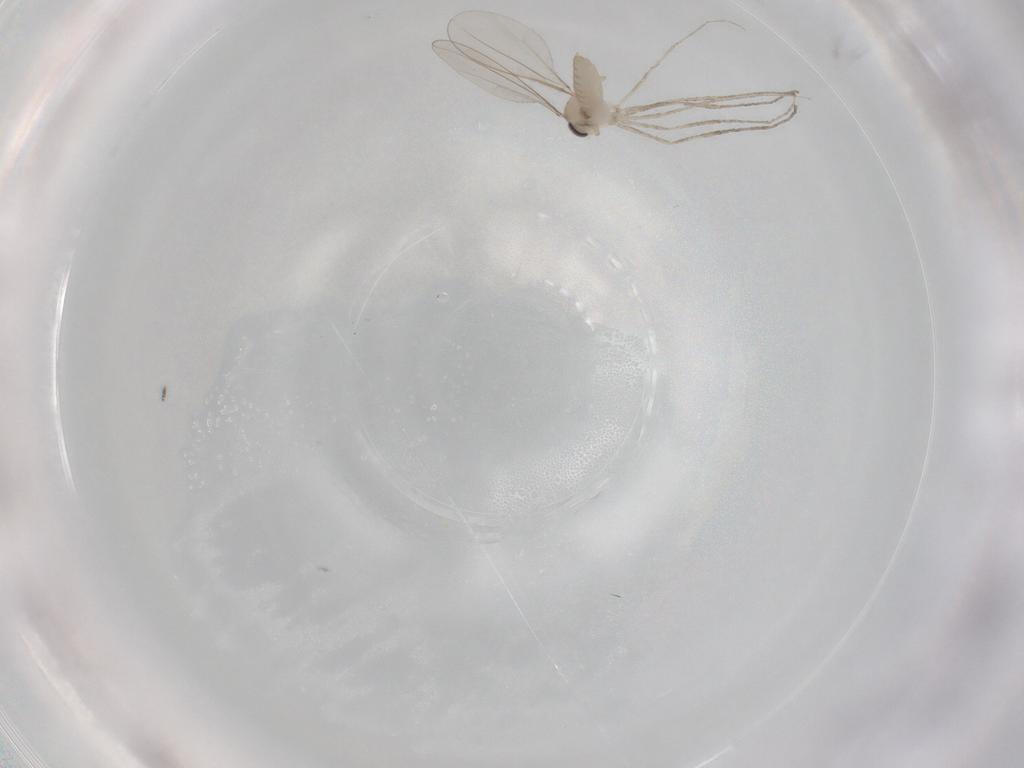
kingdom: Animalia
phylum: Arthropoda
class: Insecta
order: Diptera
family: Cecidomyiidae
